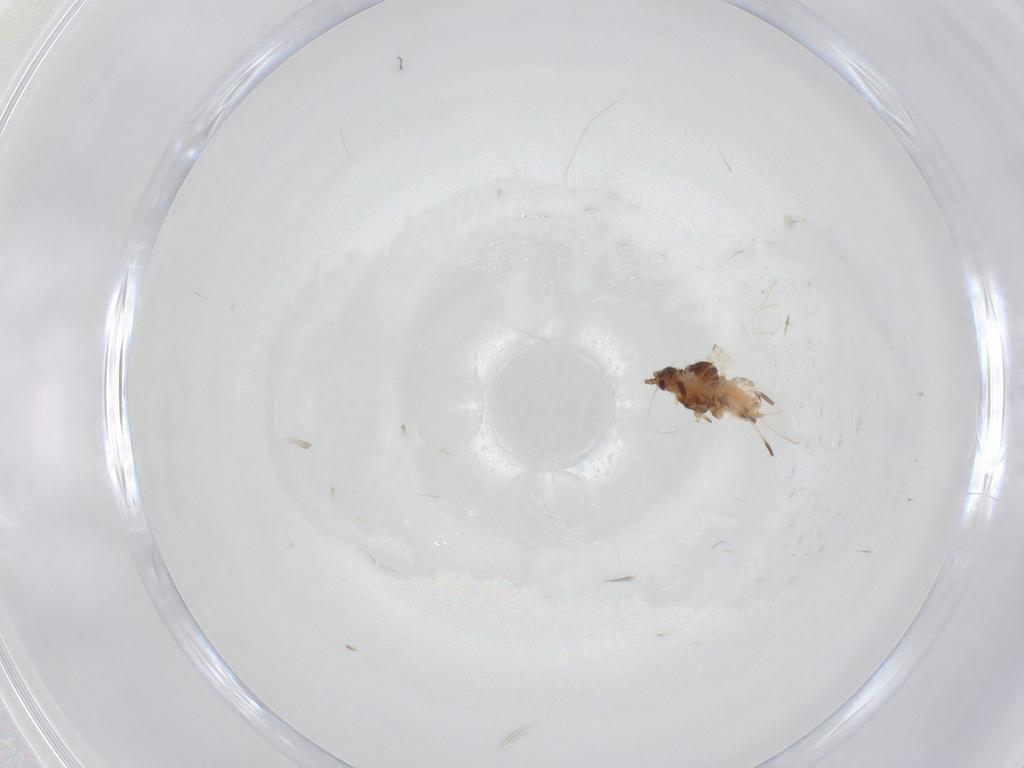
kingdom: Animalia
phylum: Arthropoda
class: Insecta
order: Hemiptera
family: Aphididae
